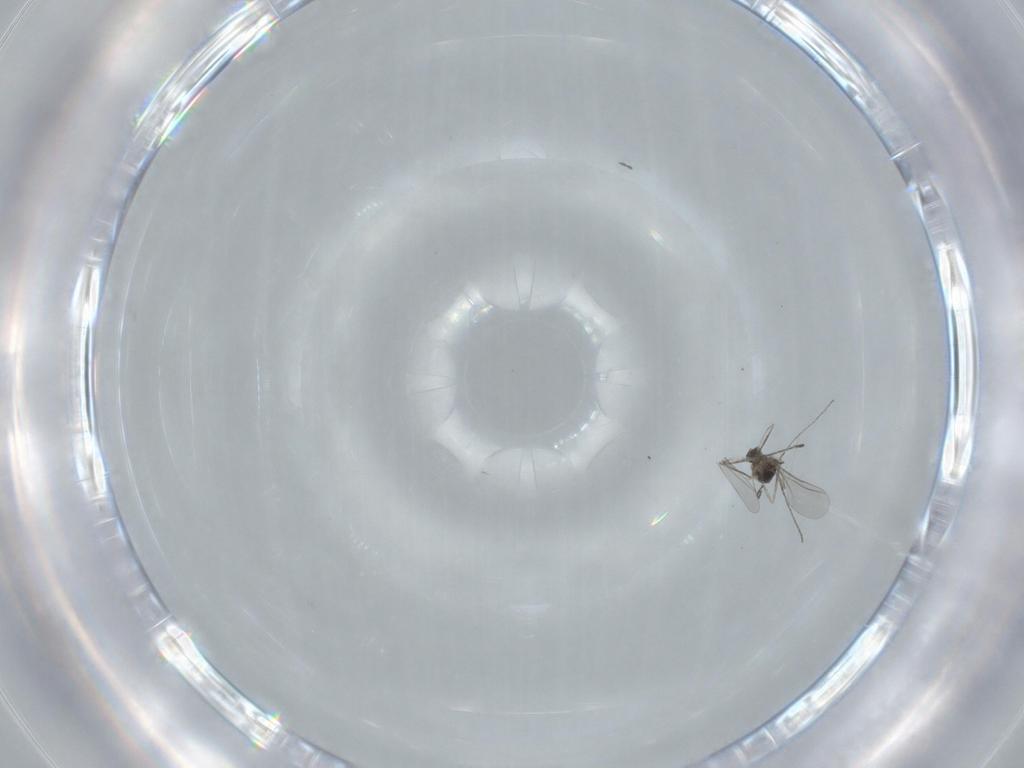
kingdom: Animalia
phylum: Arthropoda
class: Insecta
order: Diptera
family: Cecidomyiidae
